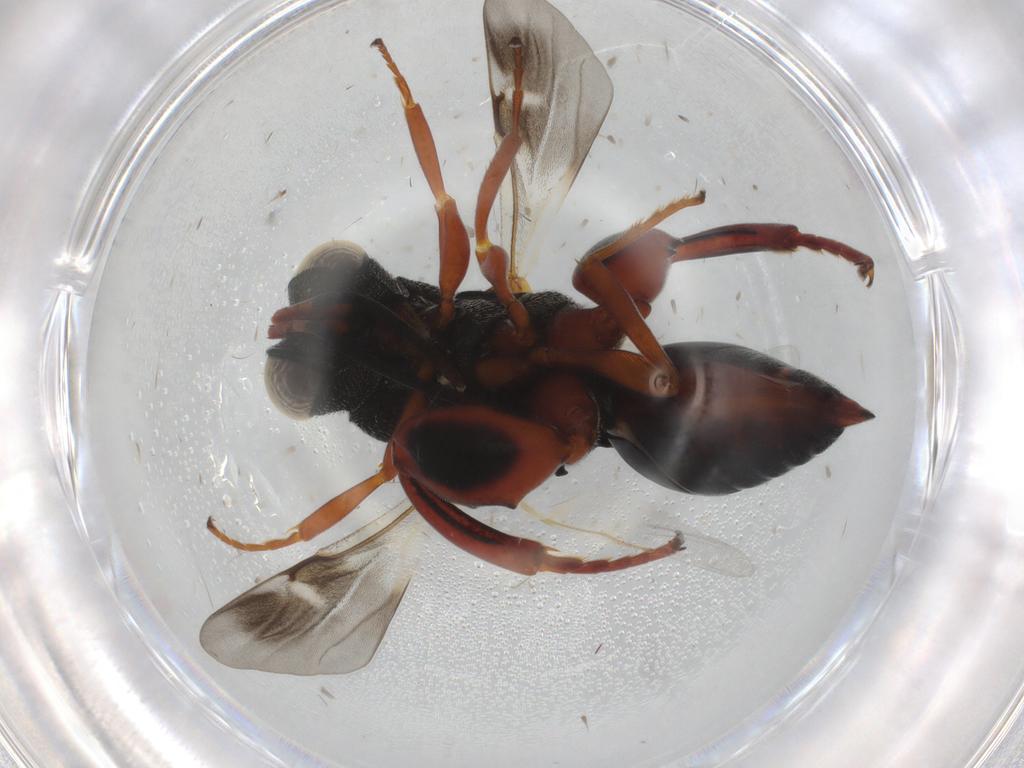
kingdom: Animalia
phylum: Arthropoda
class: Insecta
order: Hymenoptera
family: Chalcididae
